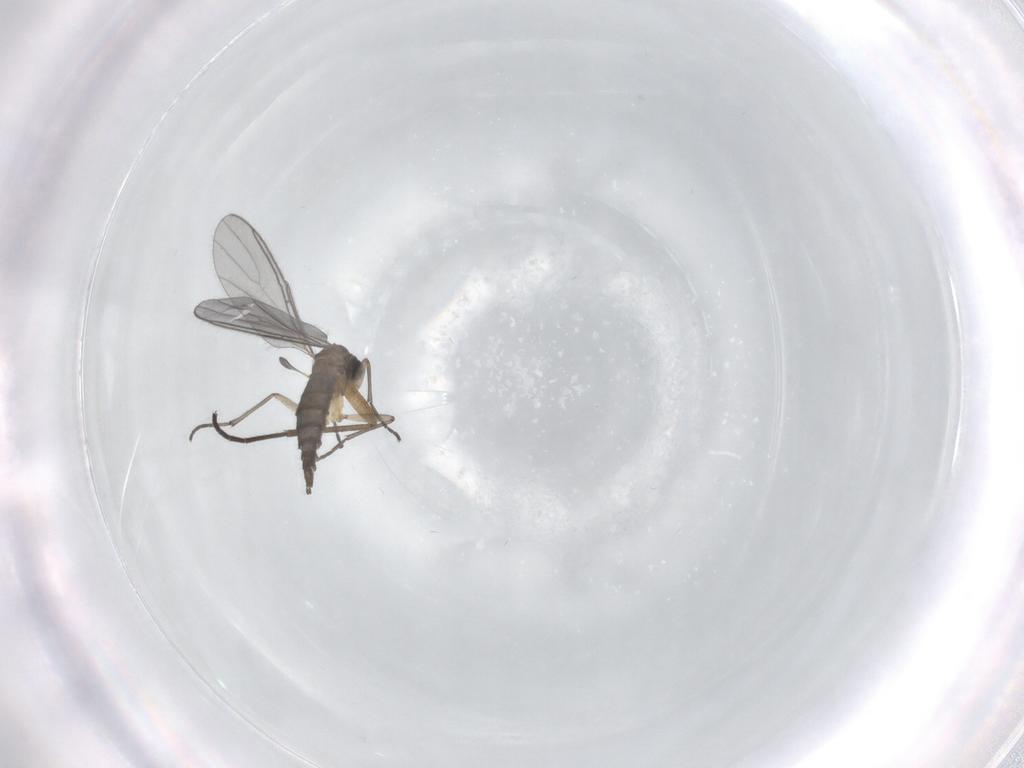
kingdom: Animalia
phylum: Arthropoda
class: Insecta
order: Diptera
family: Sciaridae
